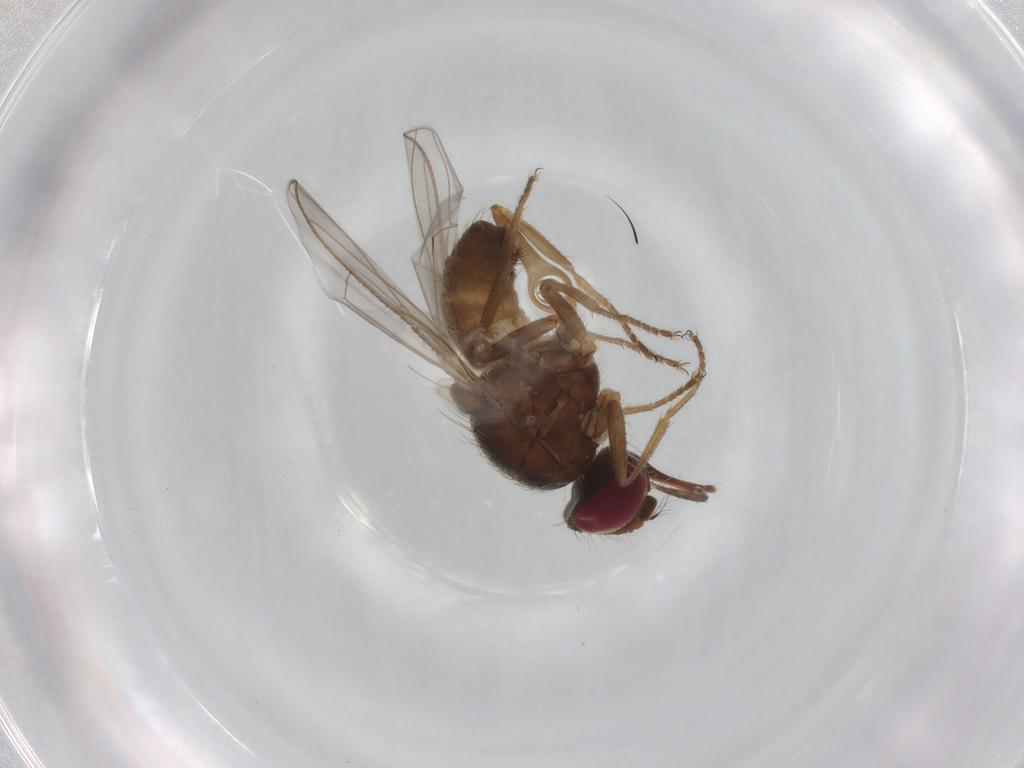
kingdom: Animalia
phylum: Arthropoda
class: Insecta
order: Diptera
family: Muscidae
